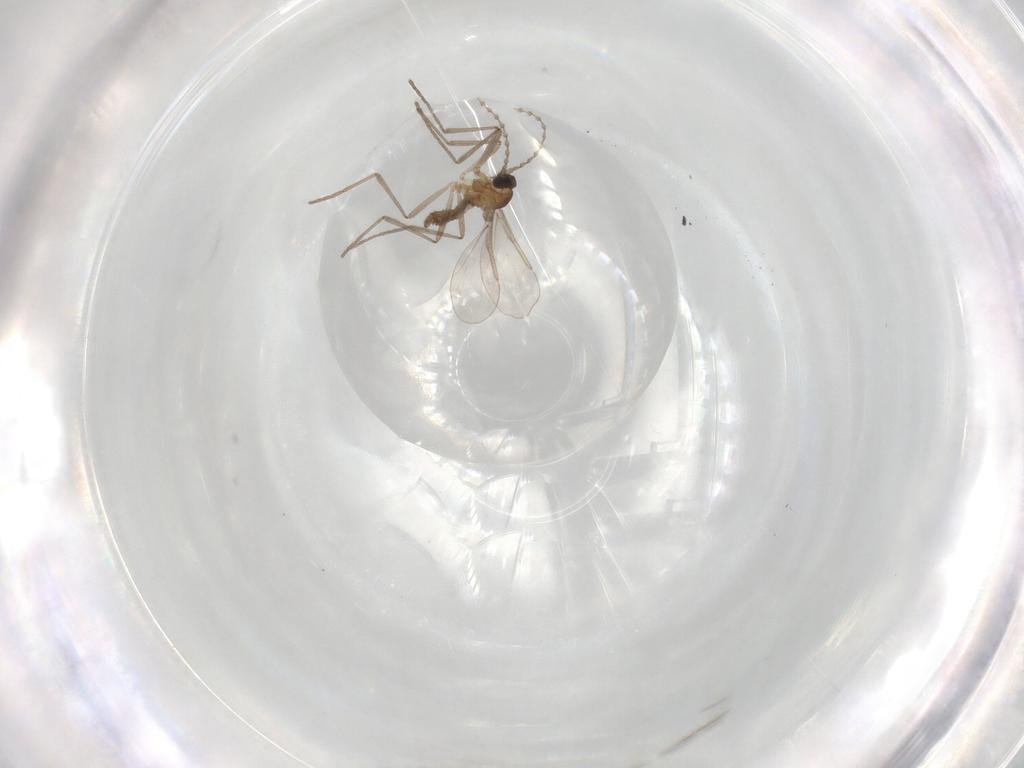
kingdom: Animalia
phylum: Arthropoda
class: Insecta
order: Diptera
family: Cecidomyiidae
